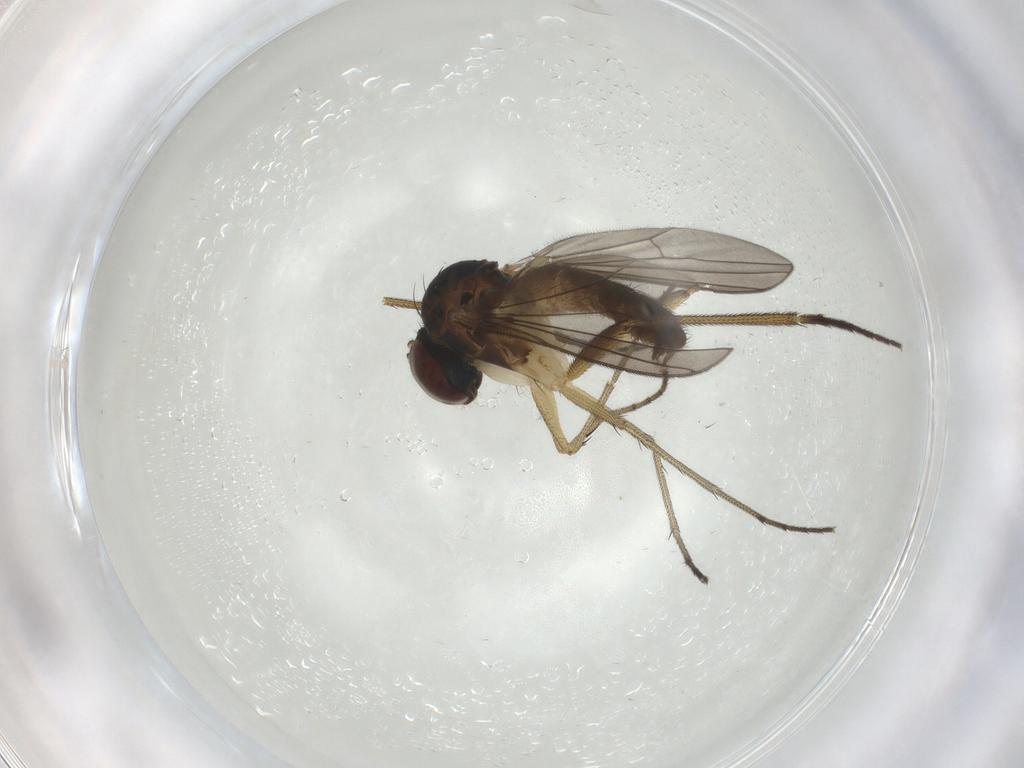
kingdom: Animalia
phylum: Arthropoda
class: Insecta
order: Diptera
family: Dolichopodidae
